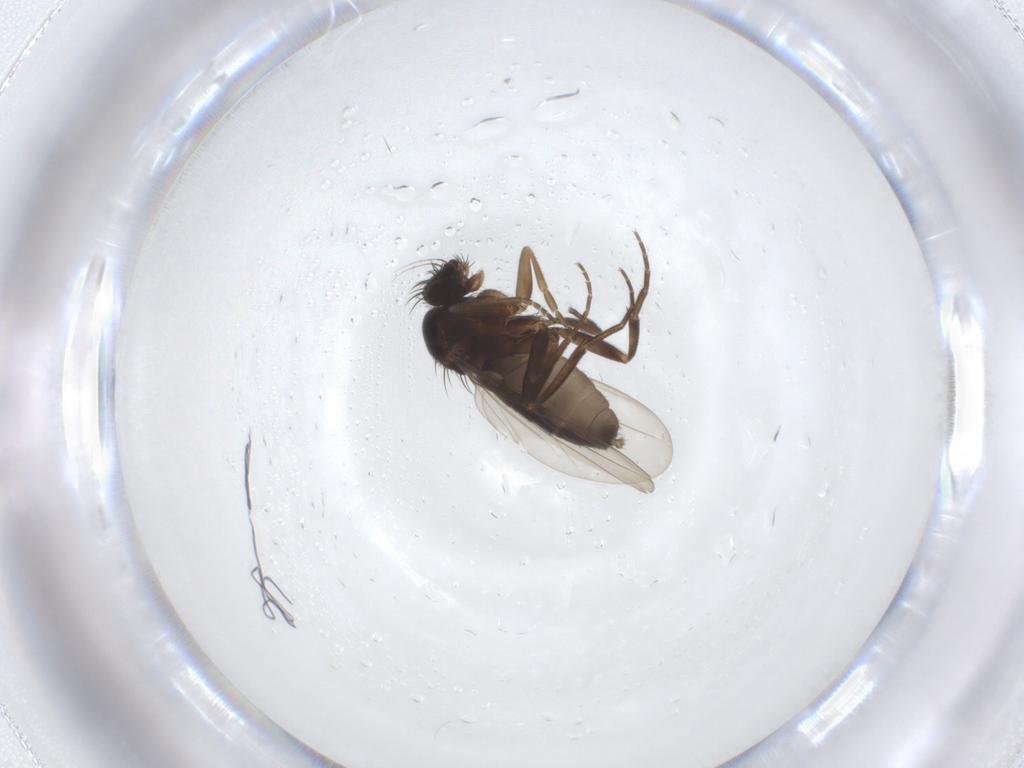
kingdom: Animalia
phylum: Arthropoda
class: Insecta
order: Diptera
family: Phoridae
